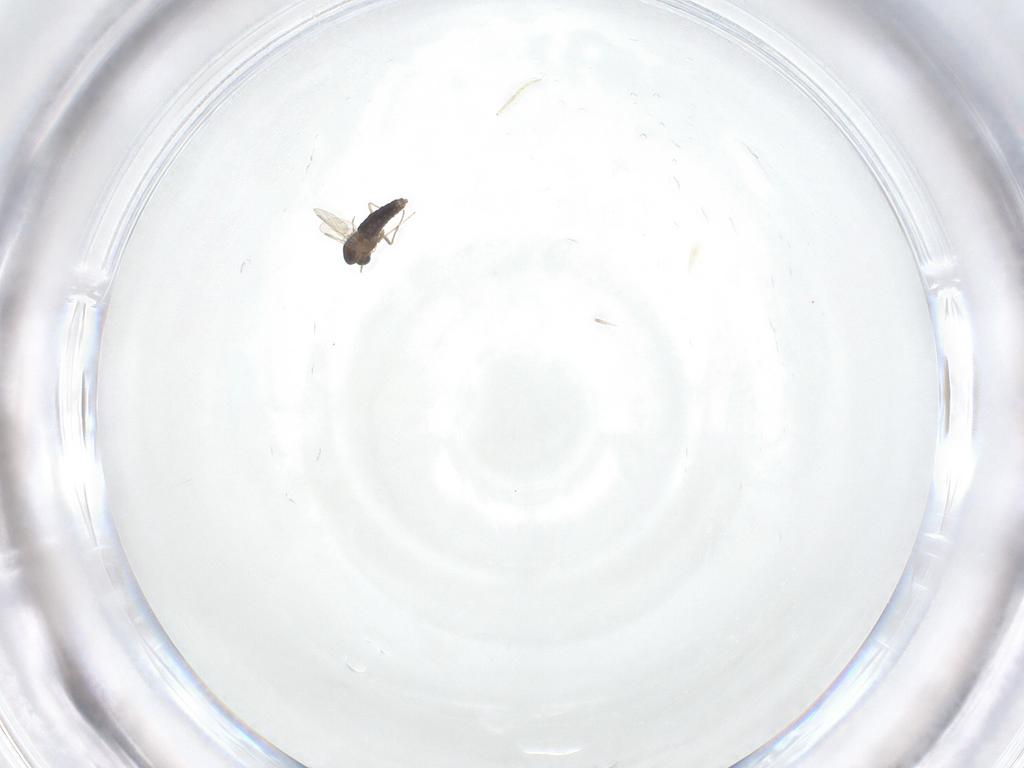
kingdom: Animalia
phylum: Arthropoda
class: Insecta
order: Diptera
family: Chironomidae
